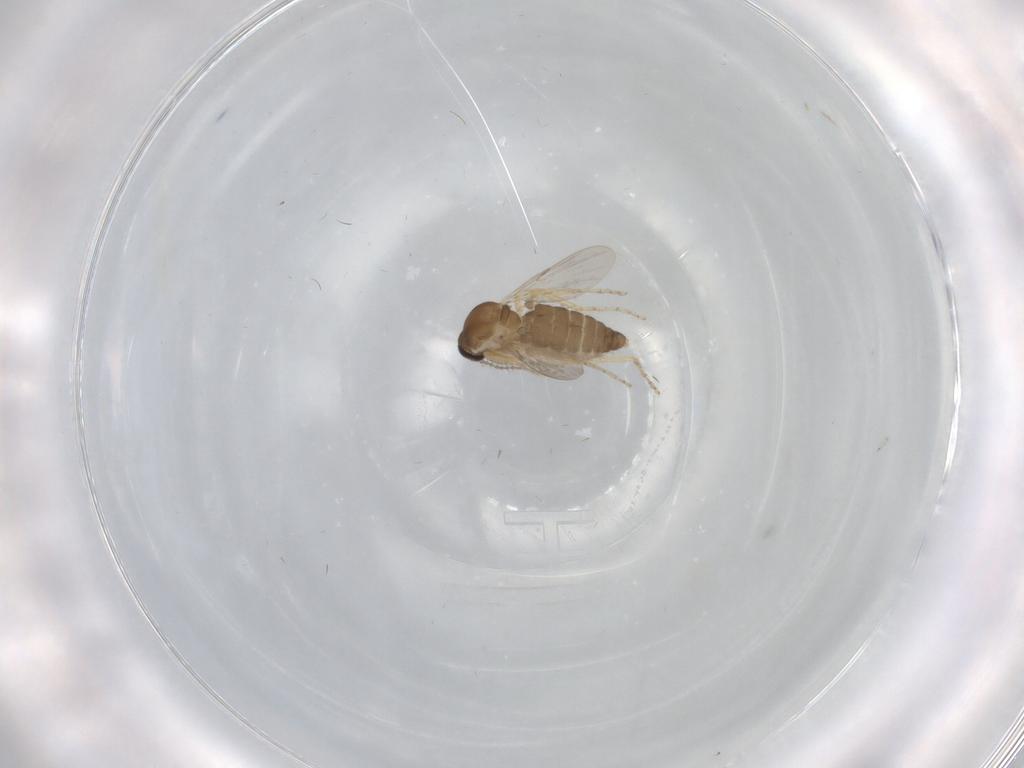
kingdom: Animalia
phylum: Arthropoda
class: Insecta
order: Diptera
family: Ceratopogonidae
